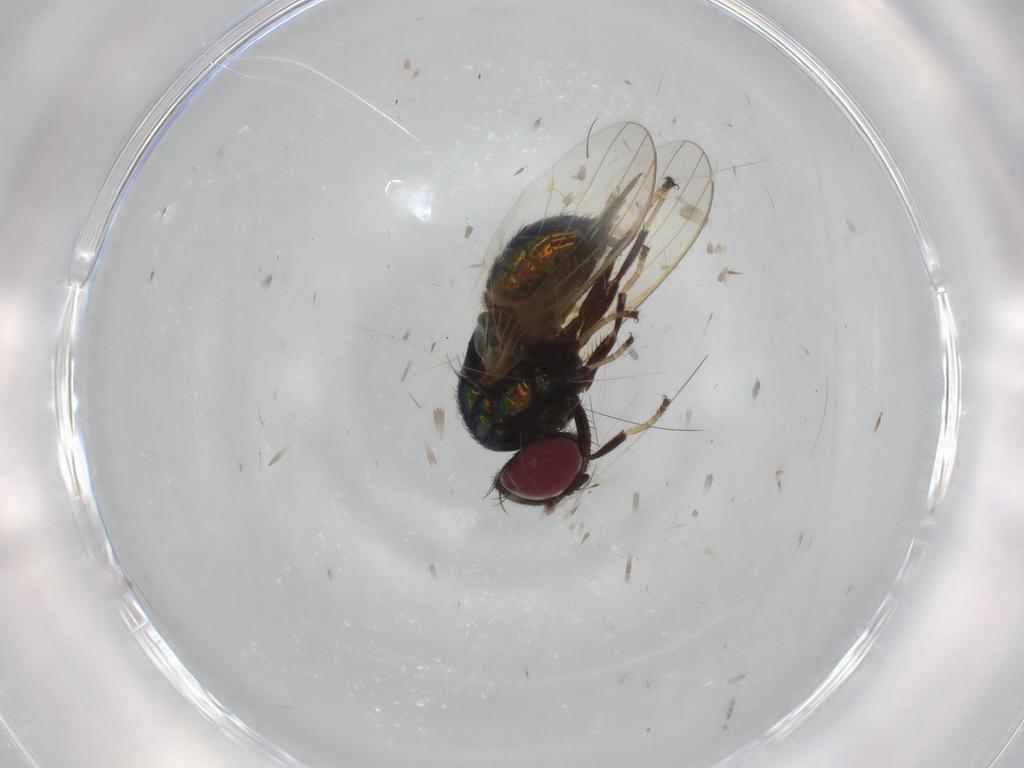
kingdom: Animalia
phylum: Arthropoda
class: Insecta
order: Diptera
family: Lonchaeidae
